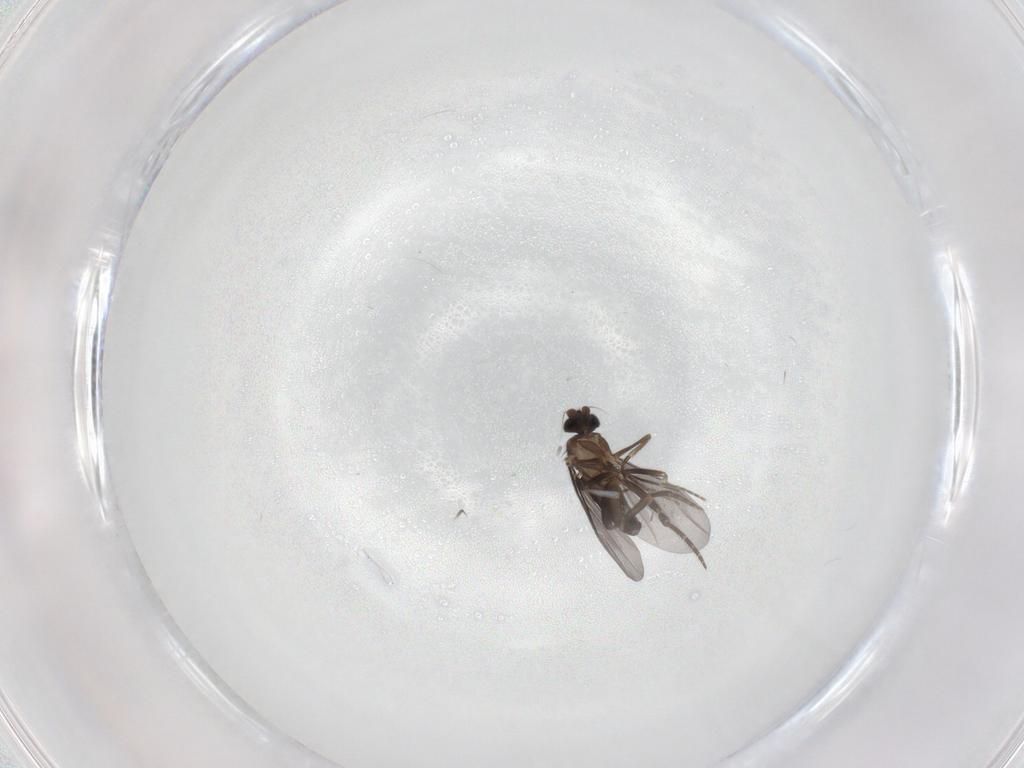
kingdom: Animalia
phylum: Arthropoda
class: Insecta
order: Diptera
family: Chironomidae
